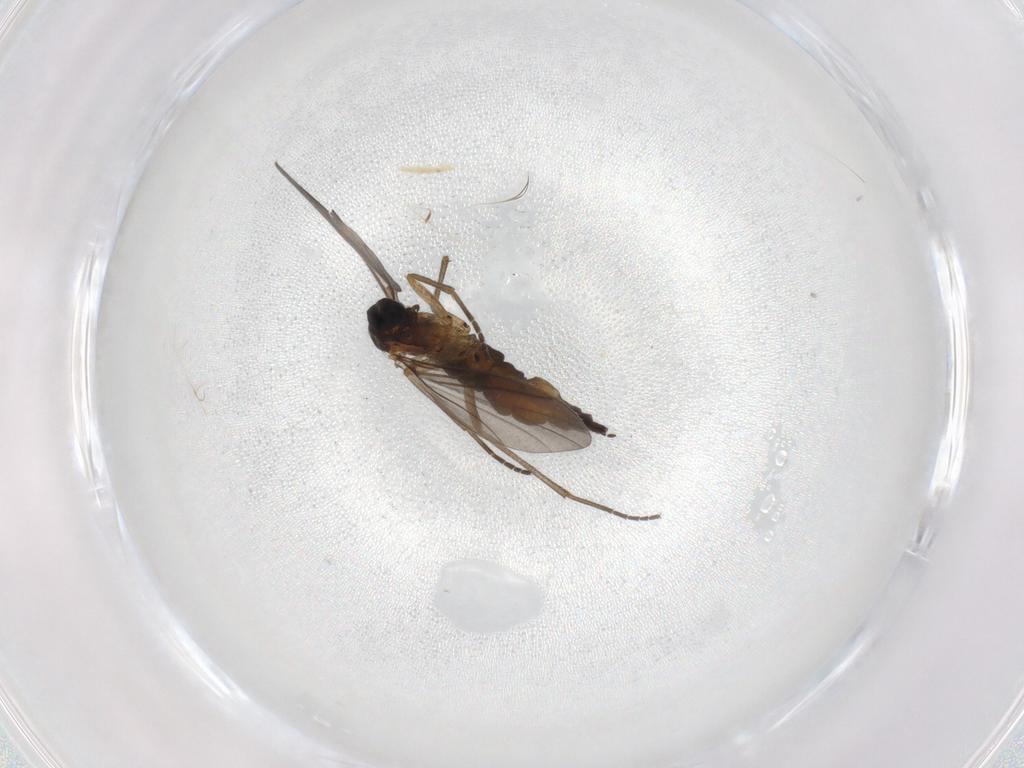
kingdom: Animalia
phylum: Arthropoda
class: Insecta
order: Diptera
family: Sciaridae
